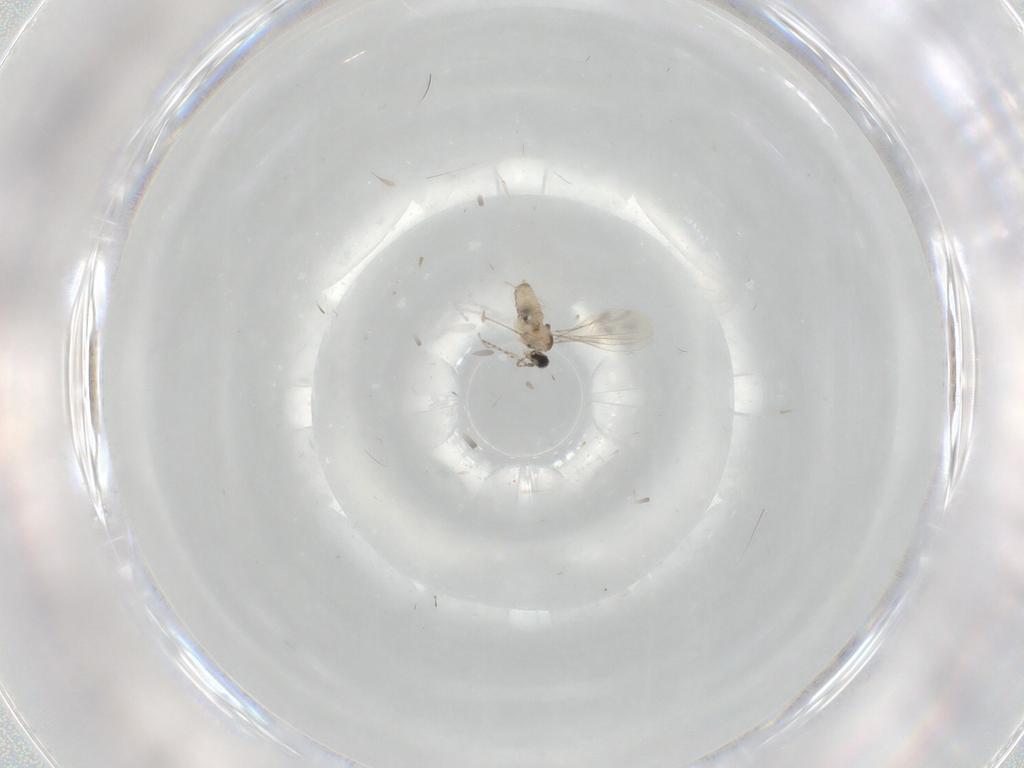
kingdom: Animalia
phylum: Arthropoda
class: Insecta
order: Diptera
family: Cecidomyiidae
